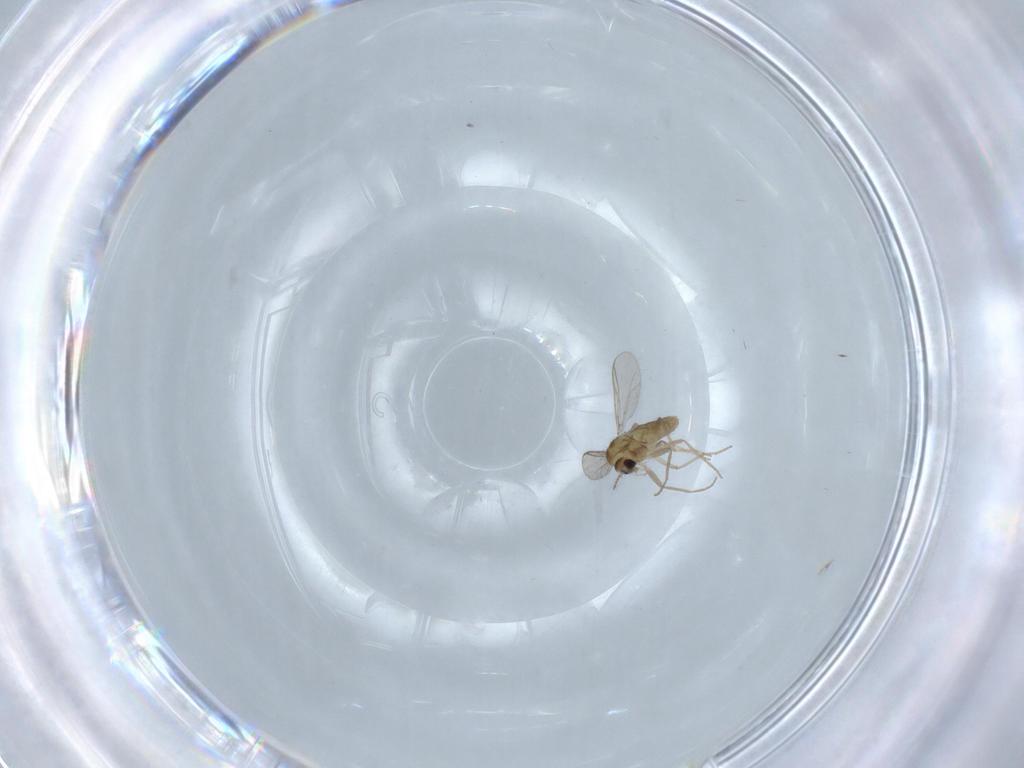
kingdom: Animalia
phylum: Arthropoda
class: Insecta
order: Diptera
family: Chironomidae
